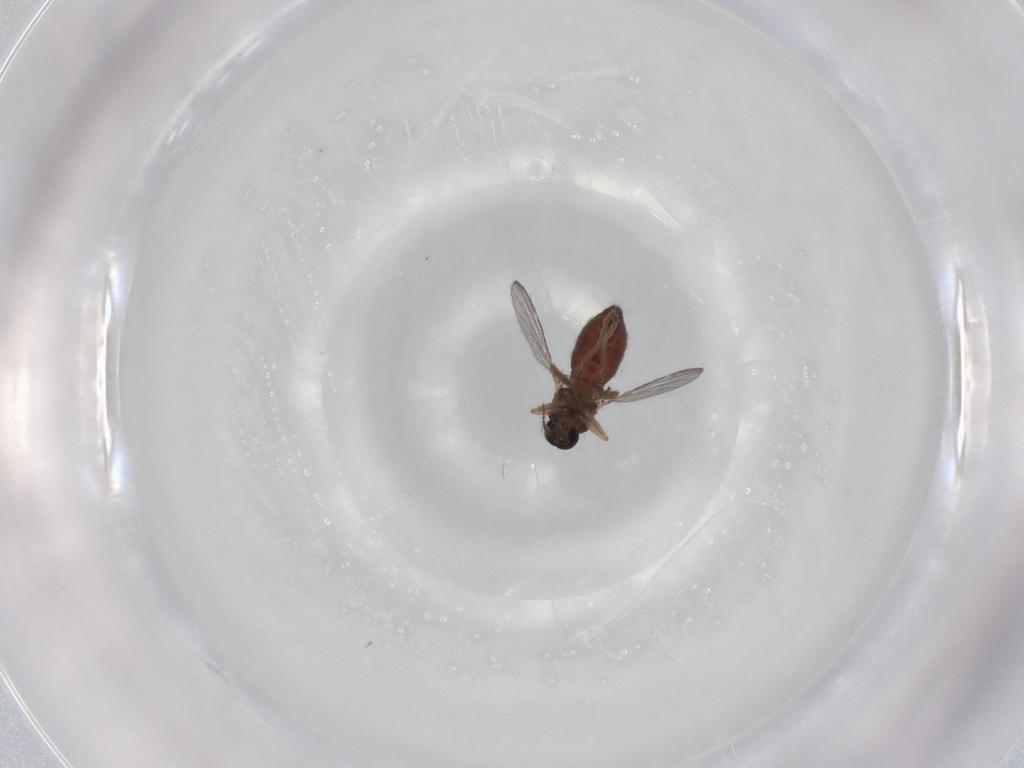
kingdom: Animalia
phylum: Arthropoda
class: Insecta
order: Diptera
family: Ceratopogonidae
